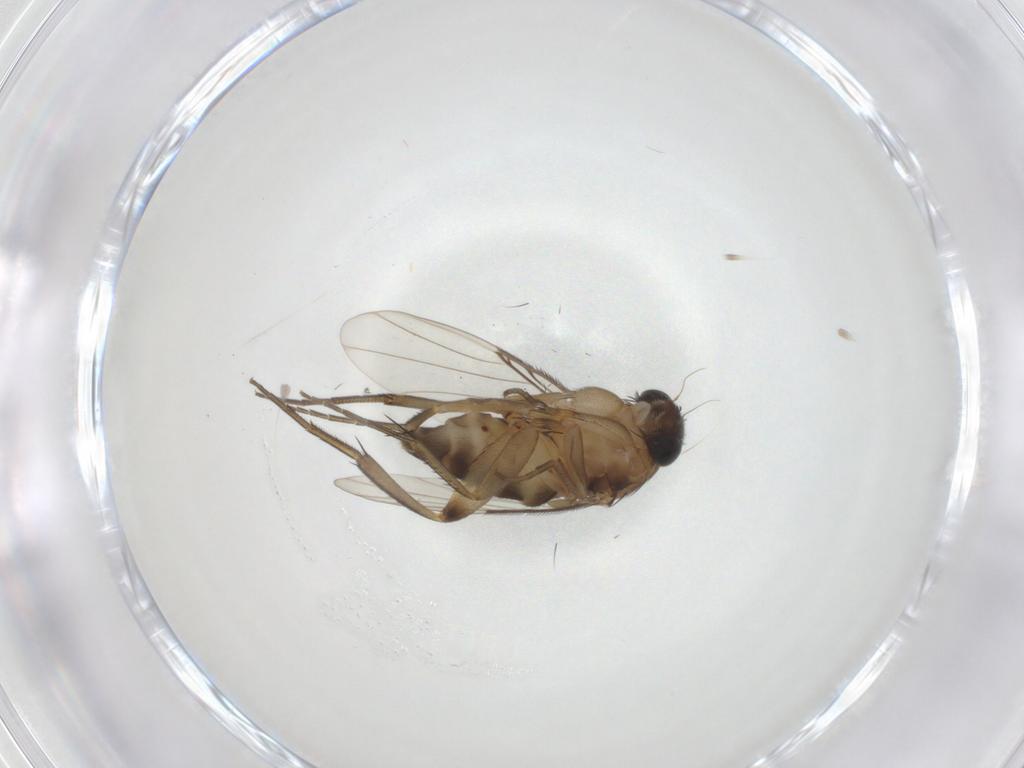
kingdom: Animalia
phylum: Arthropoda
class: Insecta
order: Diptera
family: Phoridae
